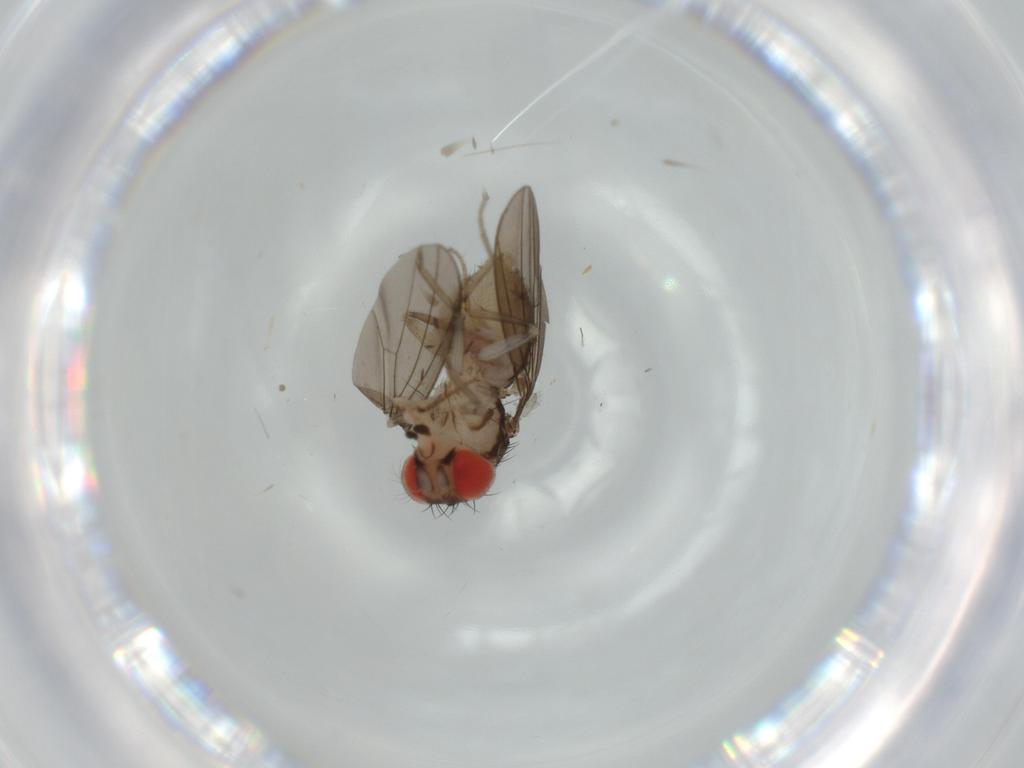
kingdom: Animalia
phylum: Arthropoda
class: Insecta
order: Diptera
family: Drosophilidae
